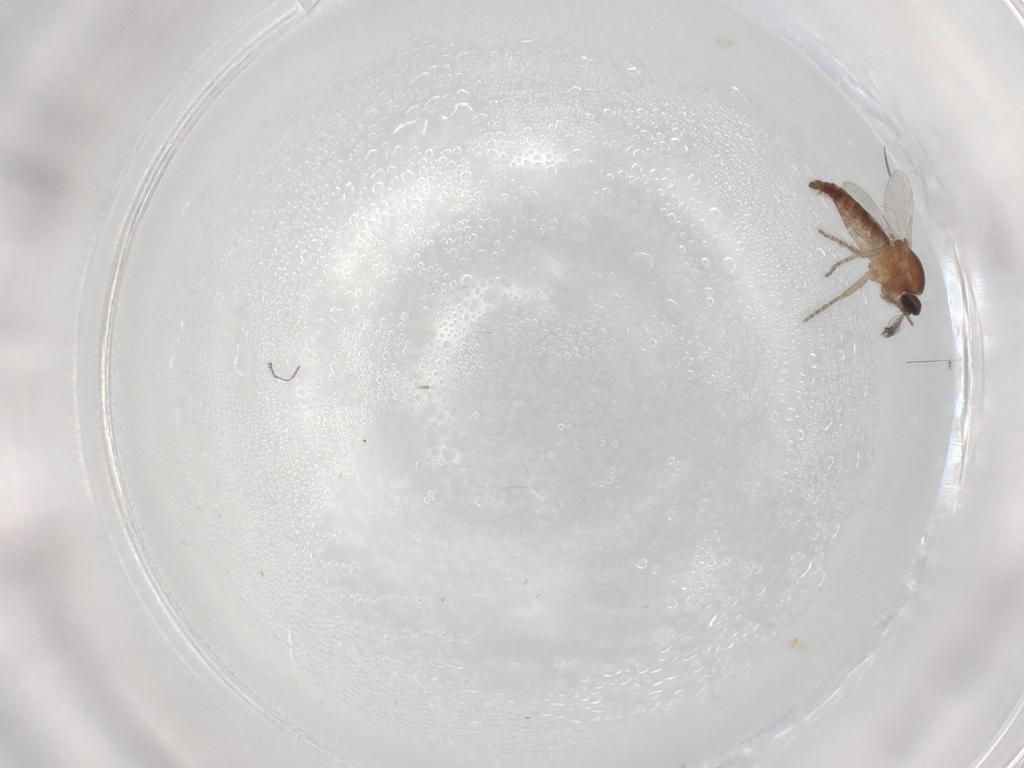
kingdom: Animalia
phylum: Arthropoda
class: Insecta
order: Diptera
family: Ceratopogonidae
